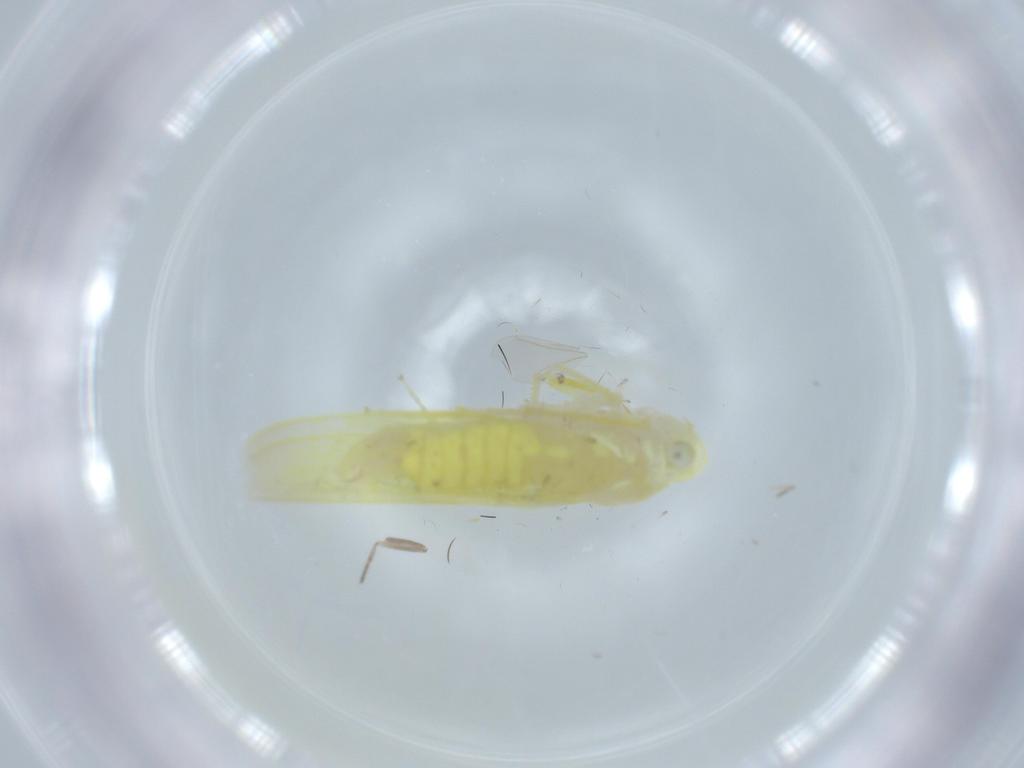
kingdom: Animalia
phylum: Arthropoda
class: Insecta
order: Hemiptera
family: Cicadellidae
